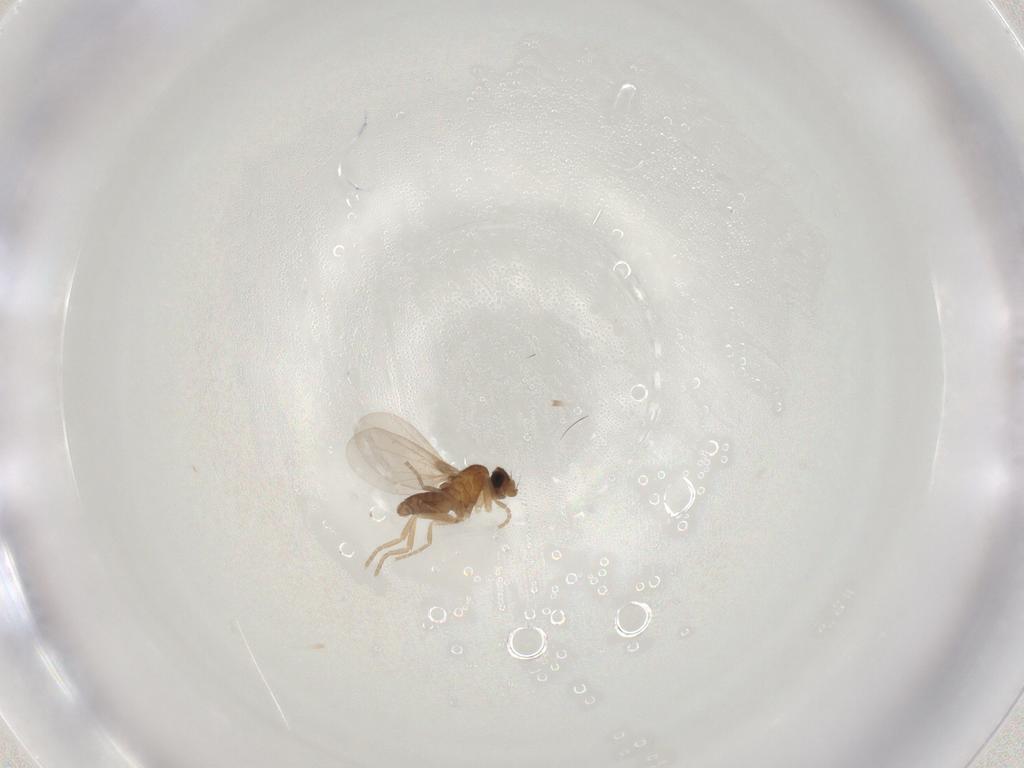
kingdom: Animalia
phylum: Arthropoda
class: Insecta
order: Diptera
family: Phoridae
